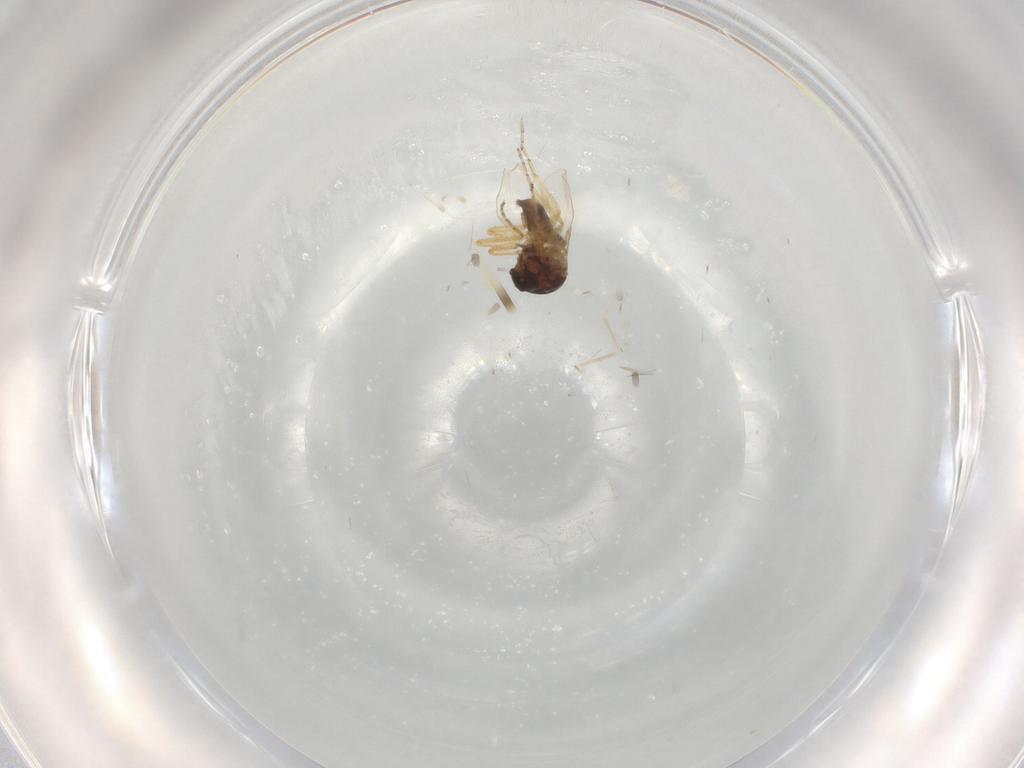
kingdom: Animalia
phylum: Arthropoda
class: Insecta
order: Diptera
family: Ceratopogonidae
